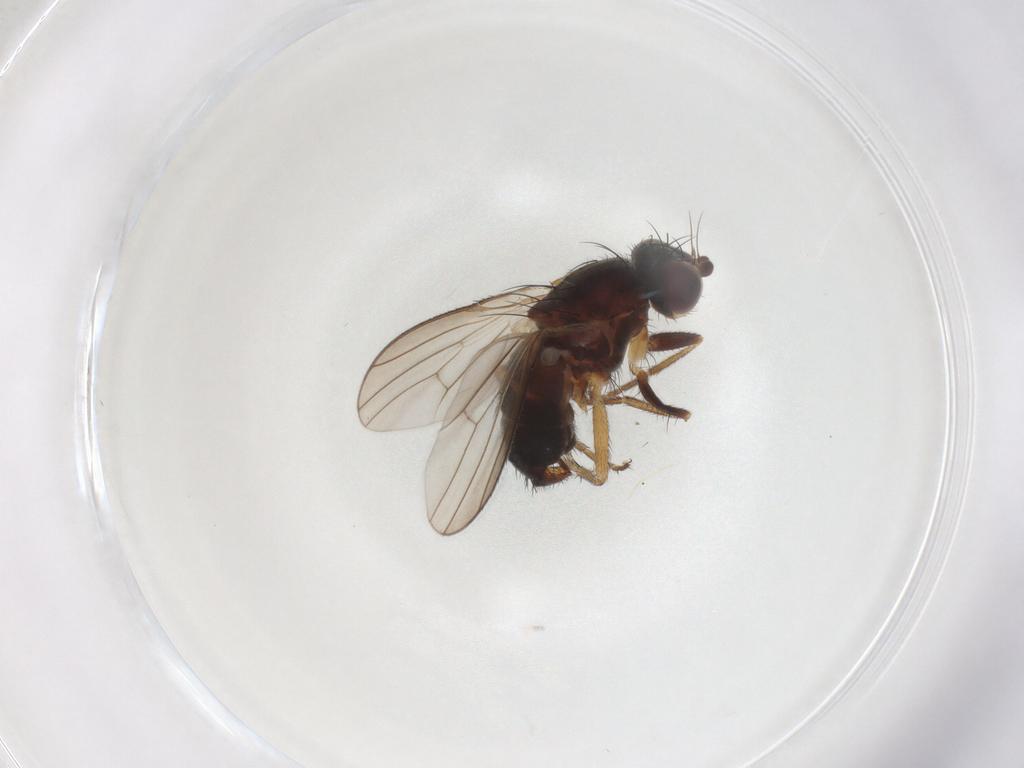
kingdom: Animalia
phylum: Arthropoda
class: Insecta
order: Diptera
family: Heleomyzidae
